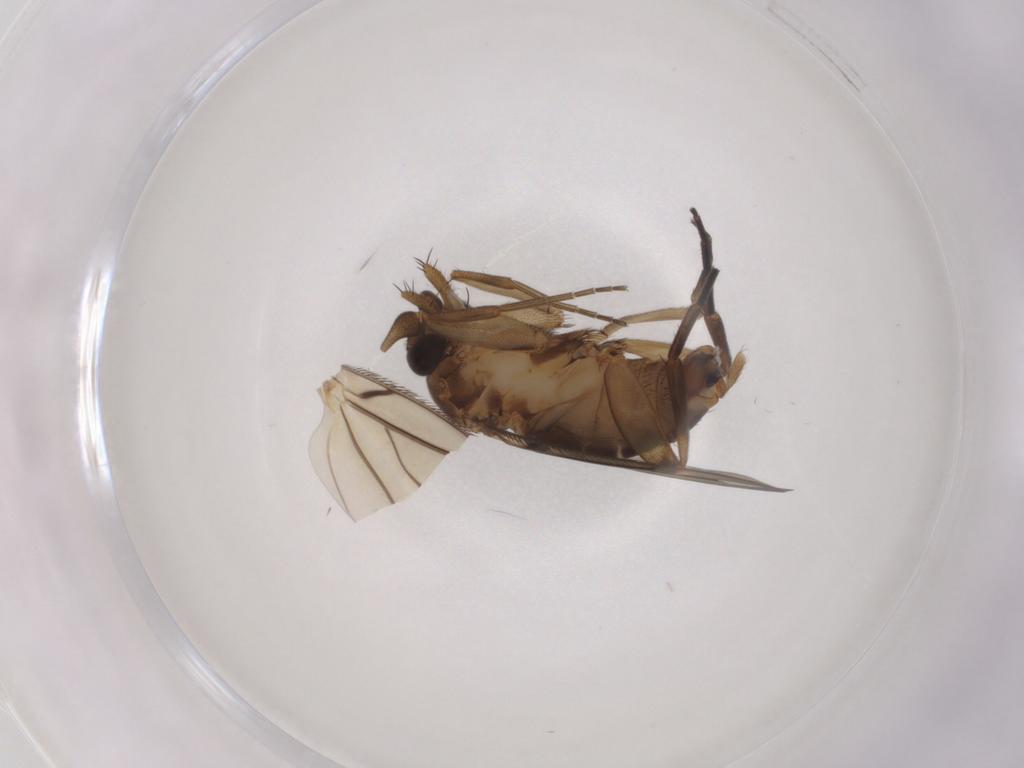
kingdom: Animalia
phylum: Arthropoda
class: Insecta
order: Diptera
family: Phoridae
